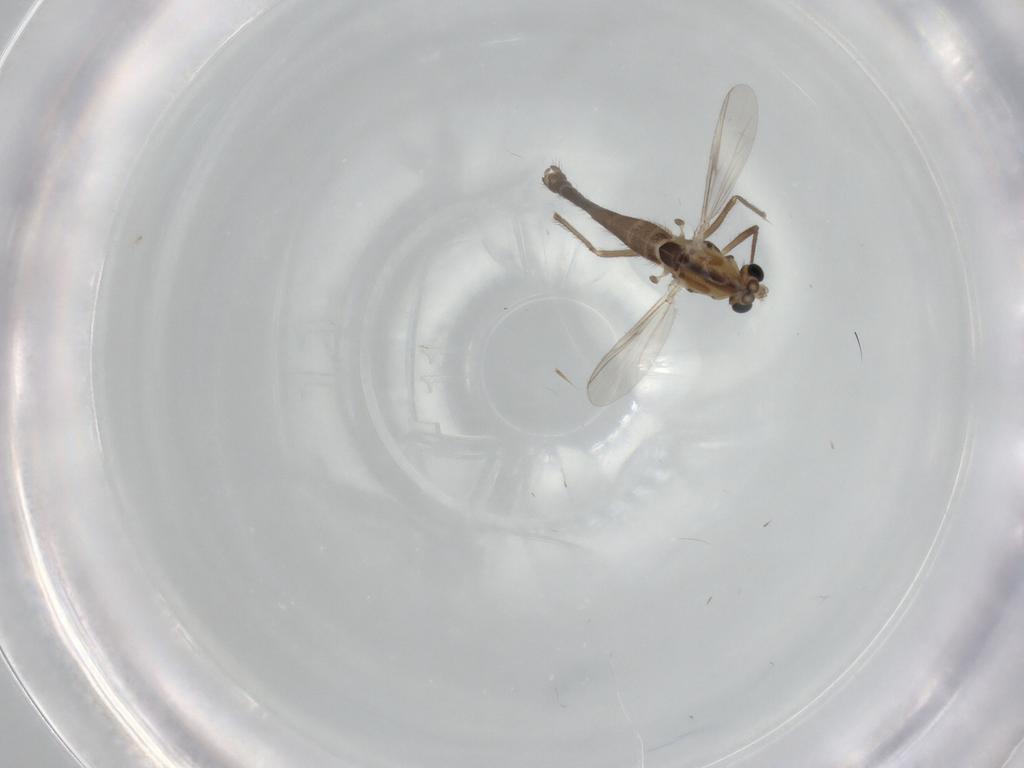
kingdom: Animalia
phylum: Arthropoda
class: Insecta
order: Diptera
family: Chironomidae
